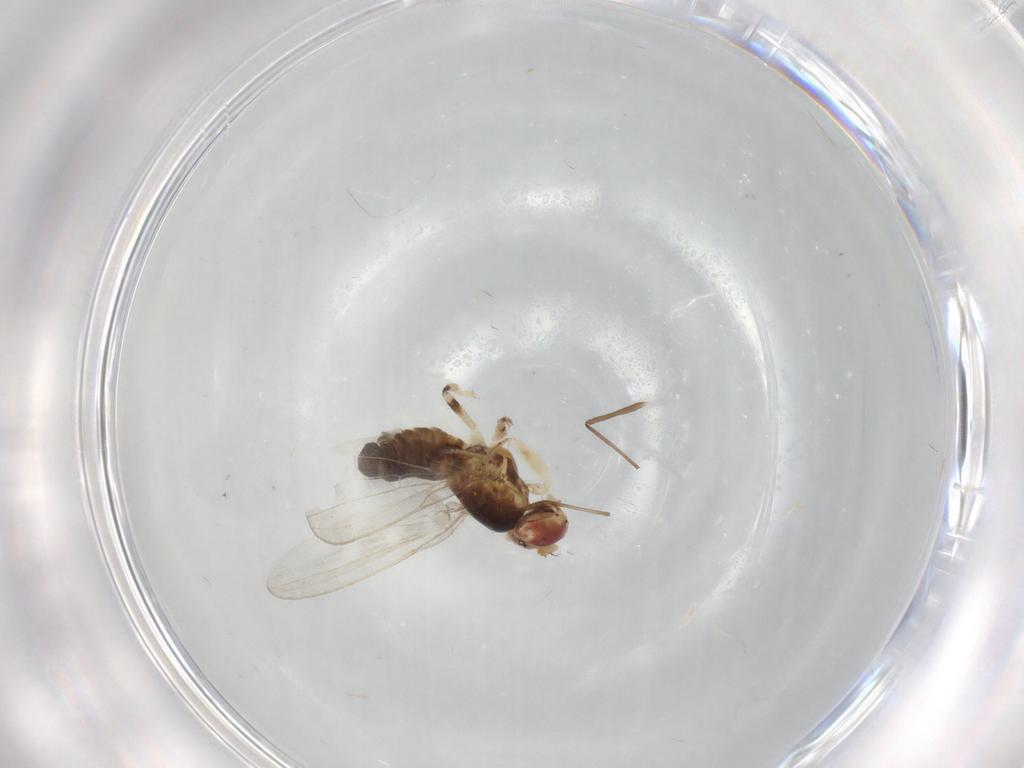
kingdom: Animalia
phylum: Arthropoda
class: Insecta
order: Diptera
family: Periscelididae
